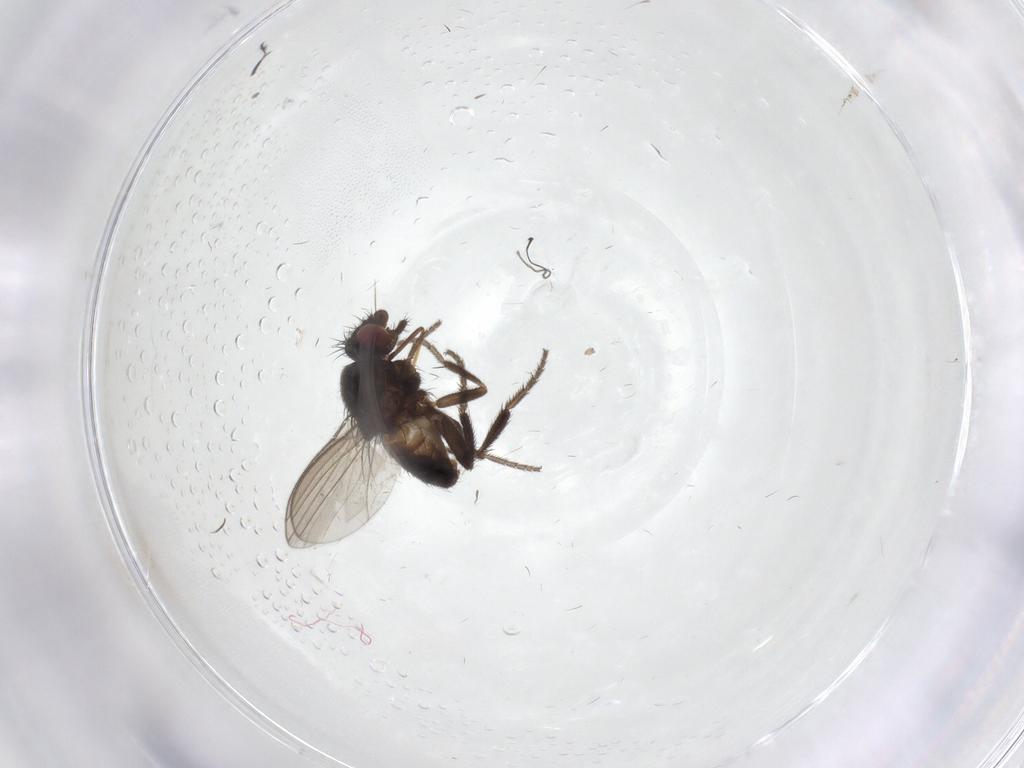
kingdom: Animalia
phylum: Arthropoda
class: Insecta
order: Diptera
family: Milichiidae
